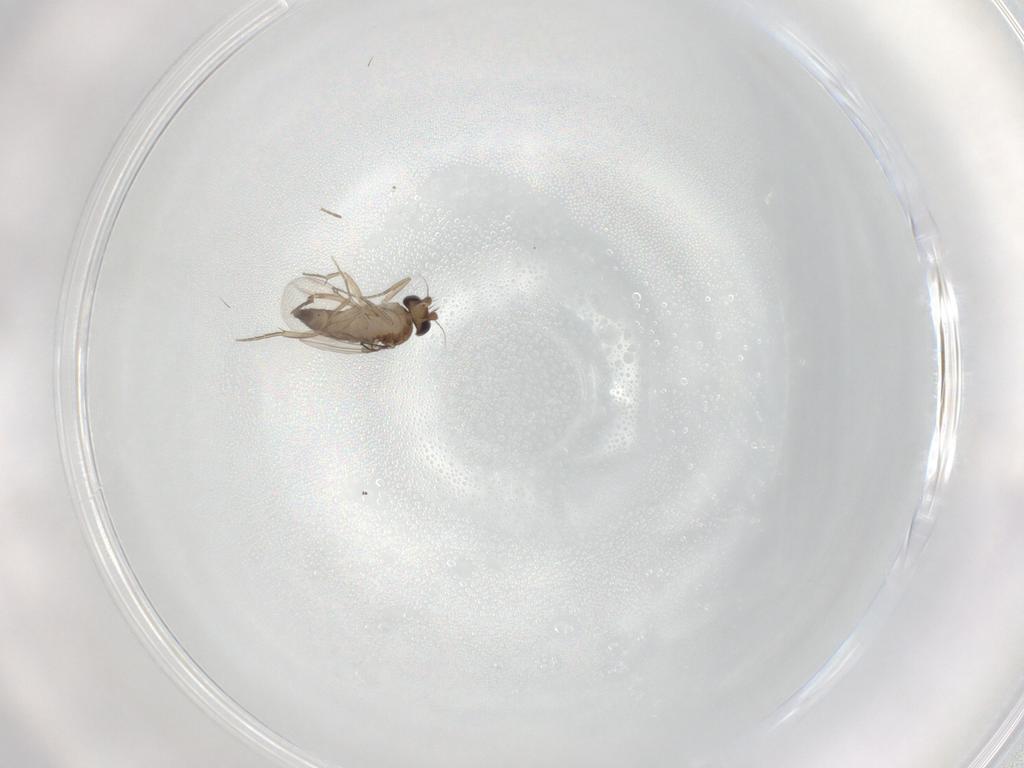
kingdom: Animalia
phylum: Arthropoda
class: Insecta
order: Diptera
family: Phoridae
